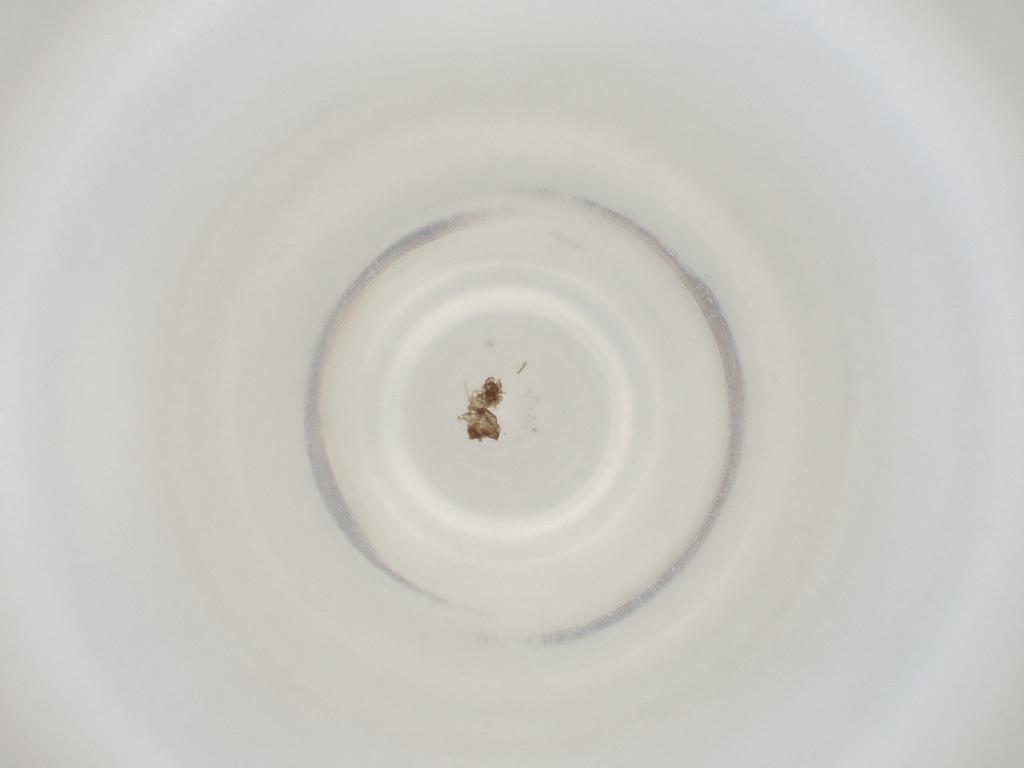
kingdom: Animalia
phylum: Arthropoda
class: Insecta
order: Diptera
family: Cecidomyiidae
